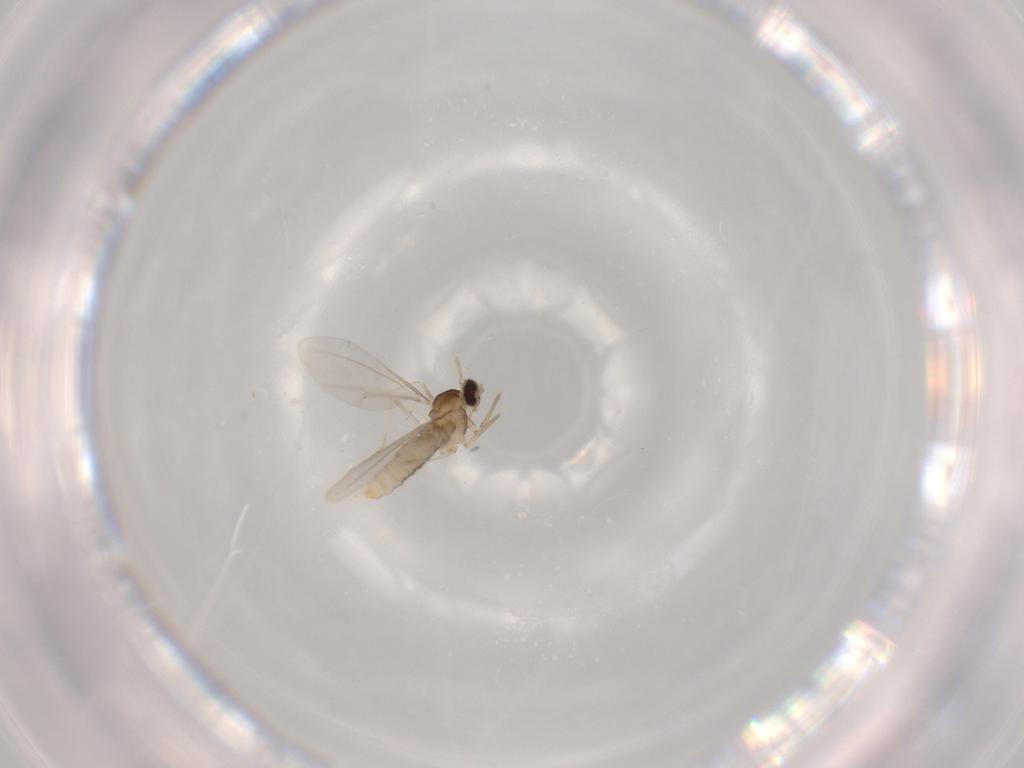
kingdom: Animalia
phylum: Arthropoda
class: Insecta
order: Diptera
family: Cecidomyiidae
